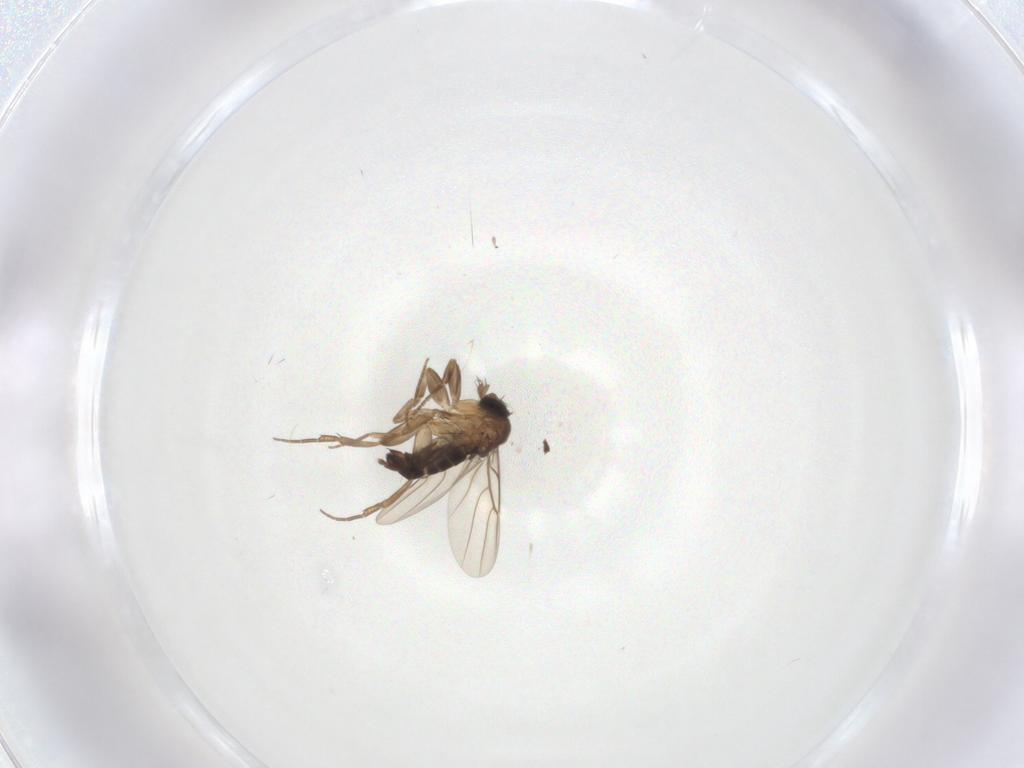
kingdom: Animalia
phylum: Arthropoda
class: Insecta
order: Diptera
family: Phoridae
